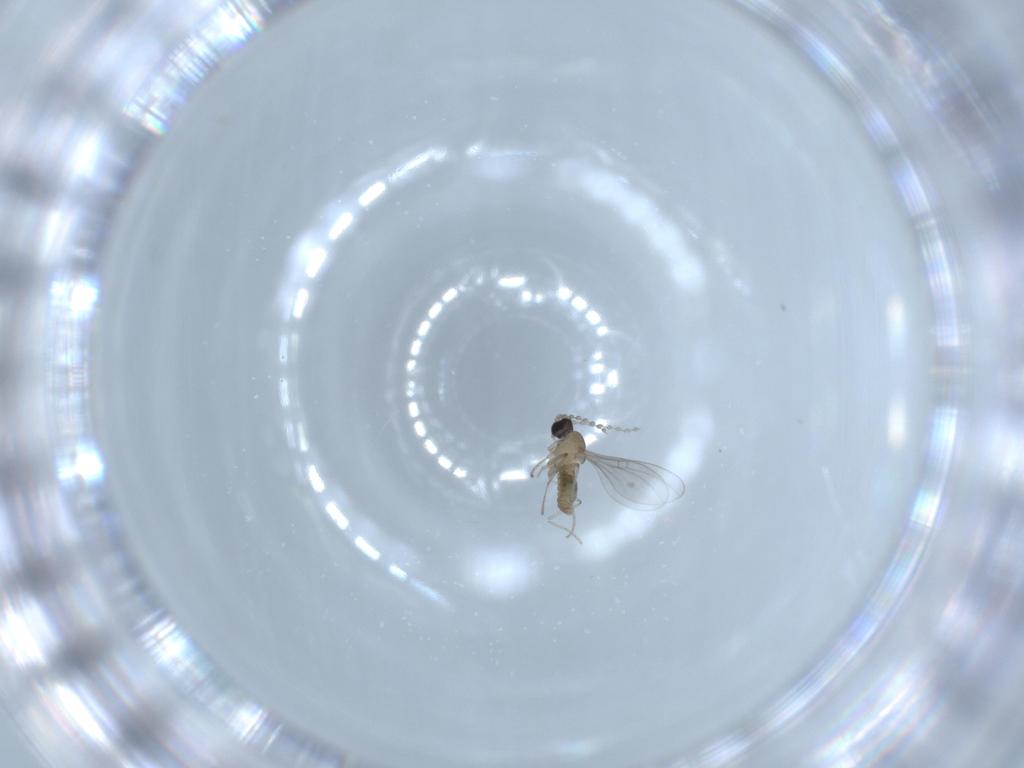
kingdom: Animalia
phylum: Arthropoda
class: Insecta
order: Diptera
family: Cecidomyiidae
